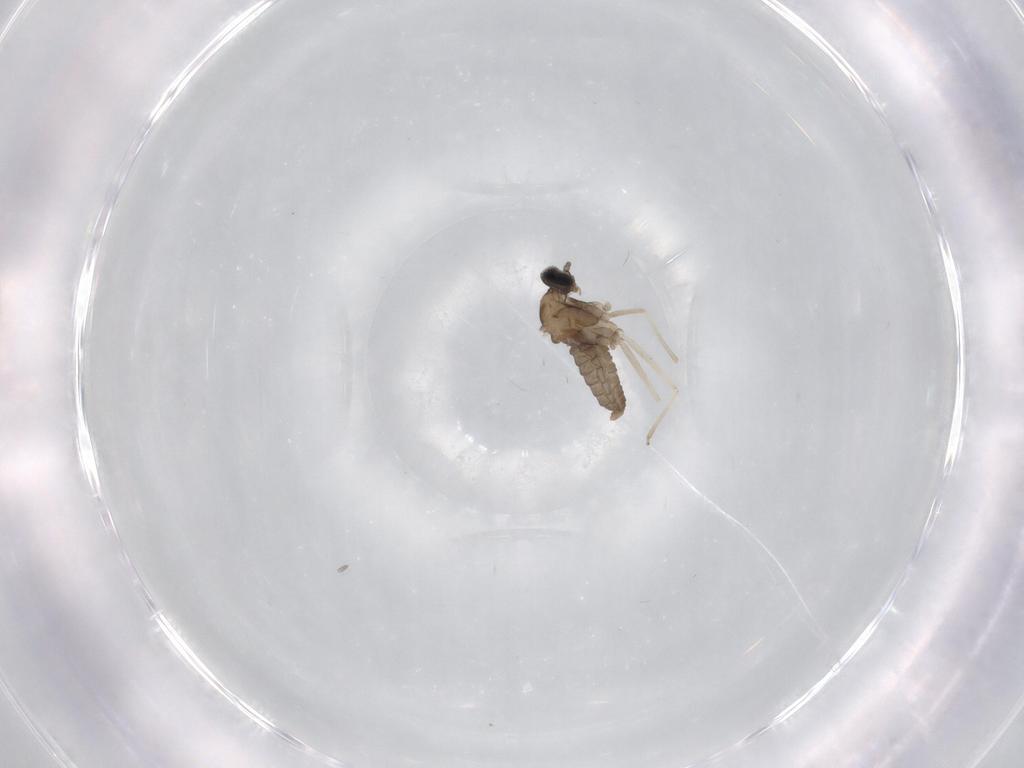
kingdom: Animalia
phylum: Arthropoda
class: Insecta
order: Diptera
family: Cecidomyiidae
